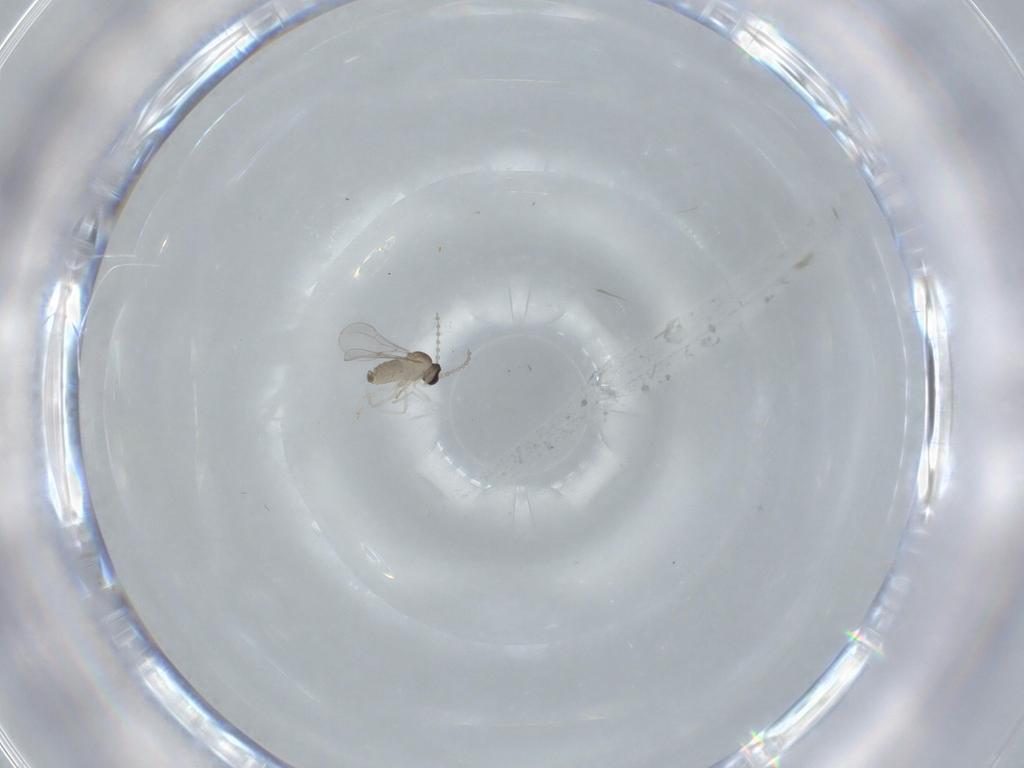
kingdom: Animalia
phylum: Arthropoda
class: Insecta
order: Diptera
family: Cecidomyiidae
